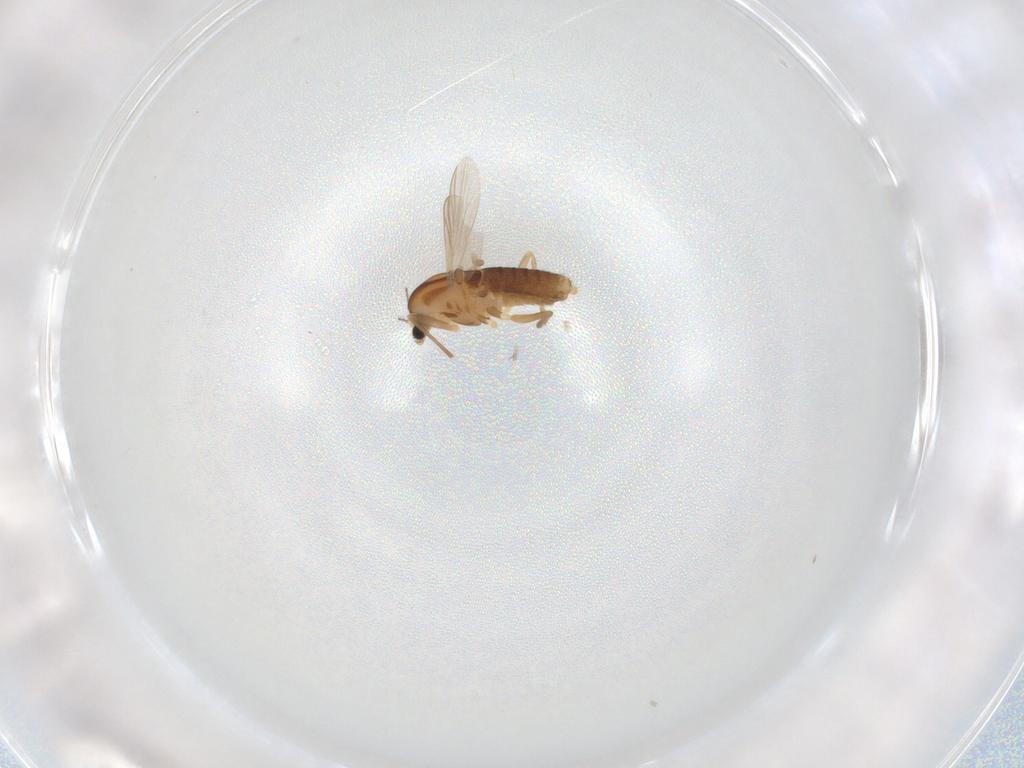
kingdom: Animalia
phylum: Arthropoda
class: Insecta
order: Diptera
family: Chironomidae
